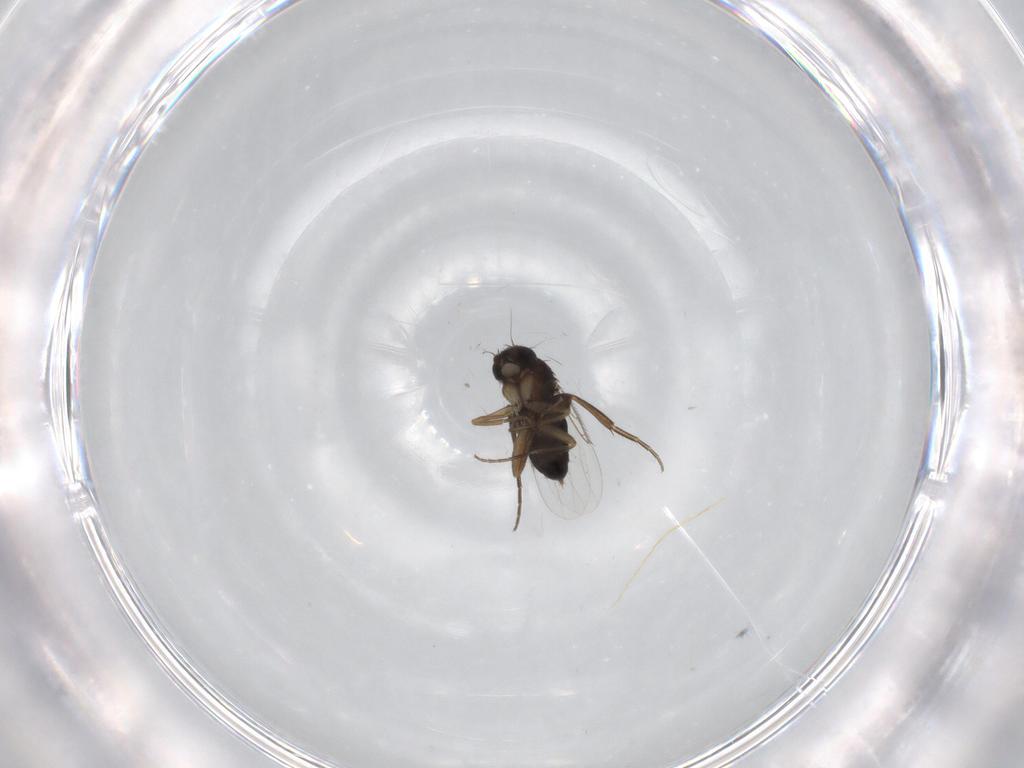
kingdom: Animalia
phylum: Arthropoda
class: Insecta
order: Diptera
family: Phoridae
